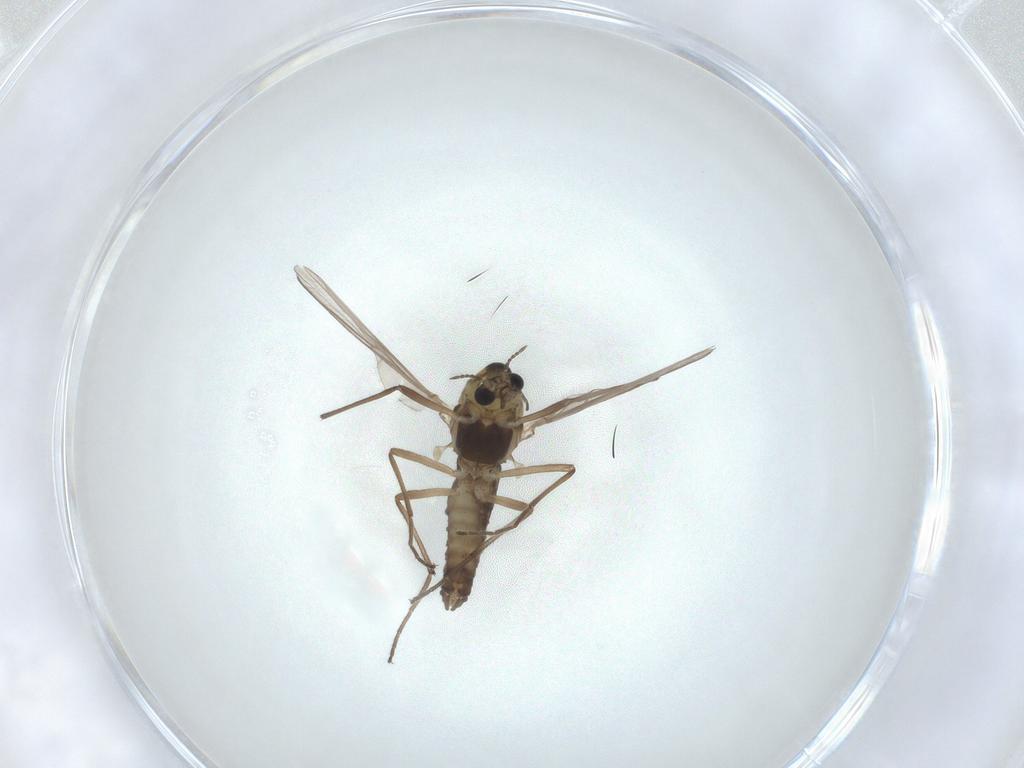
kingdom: Animalia
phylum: Arthropoda
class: Insecta
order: Diptera
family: Chironomidae
